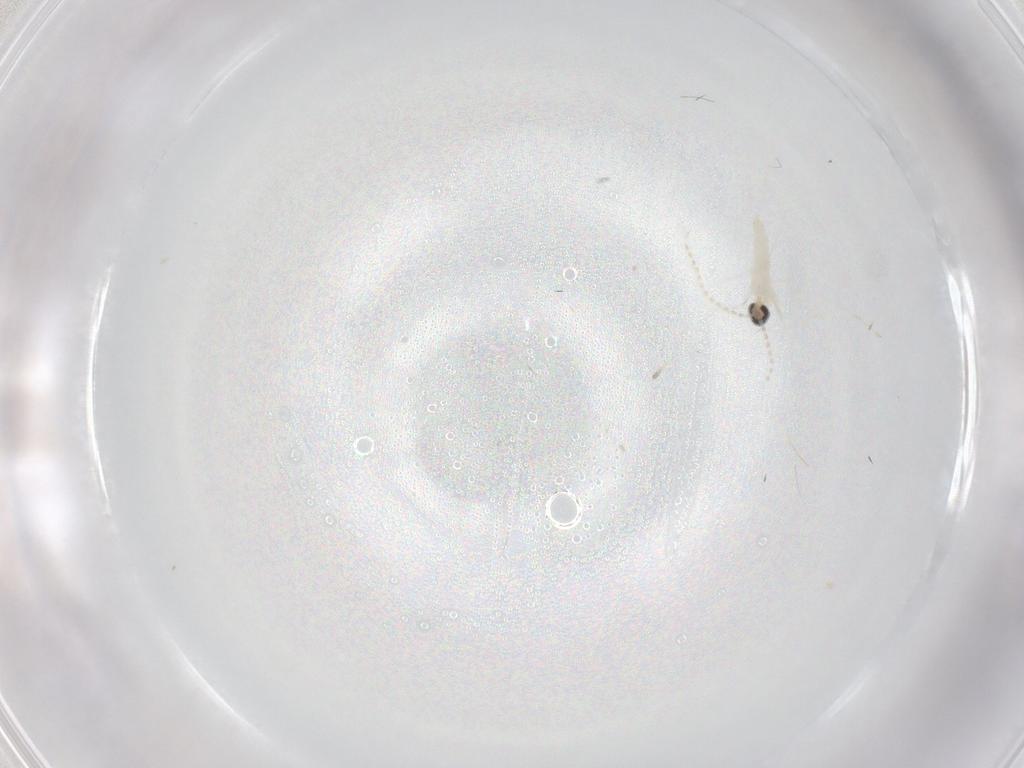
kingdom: Animalia
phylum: Arthropoda
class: Insecta
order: Diptera
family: Cecidomyiidae
